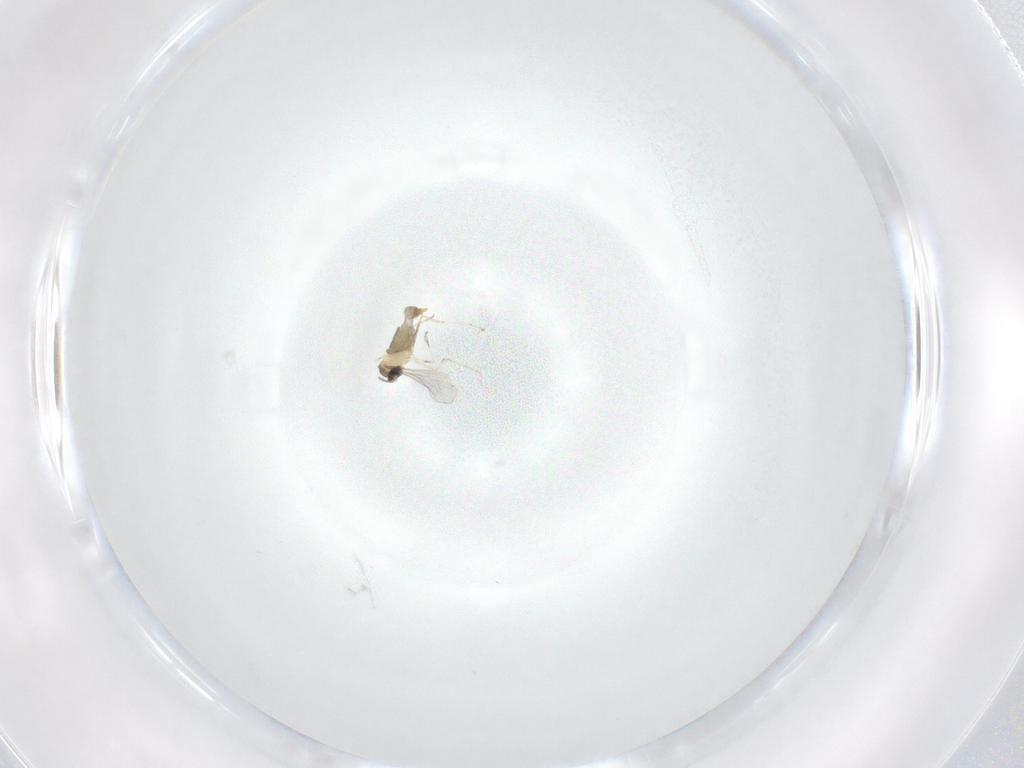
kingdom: Animalia
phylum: Arthropoda
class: Insecta
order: Diptera
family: Cecidomyiidae
